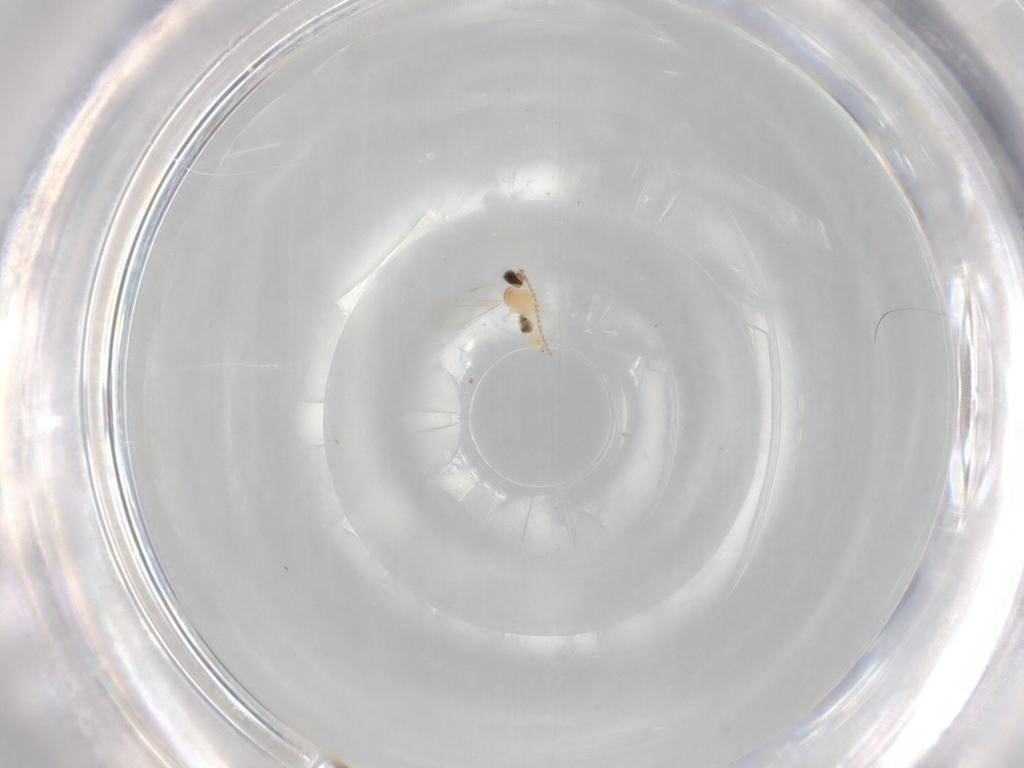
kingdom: Animalia
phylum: Arthropoda
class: Insecta
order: Diptera
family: Cecidomyiidae
